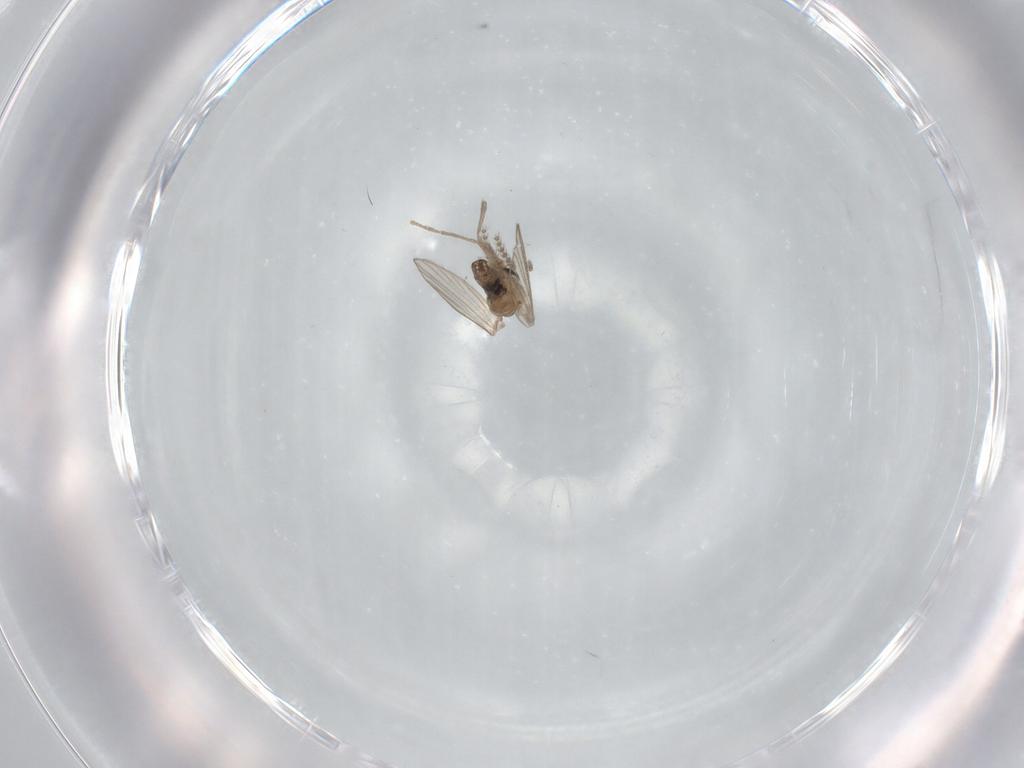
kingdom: Animalia
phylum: Arthropoda
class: Insecta
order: Diptera
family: Psychodidae
